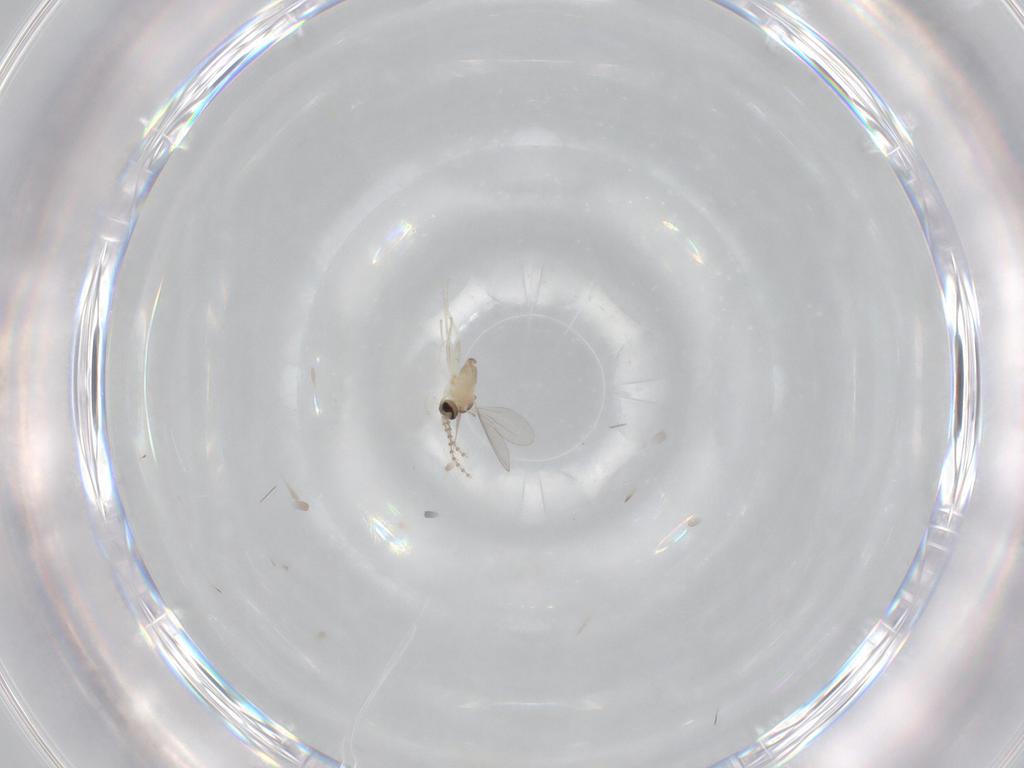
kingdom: Animalia
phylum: Arthropoda
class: Insecta
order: Diptera
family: Cecidomyiidae
